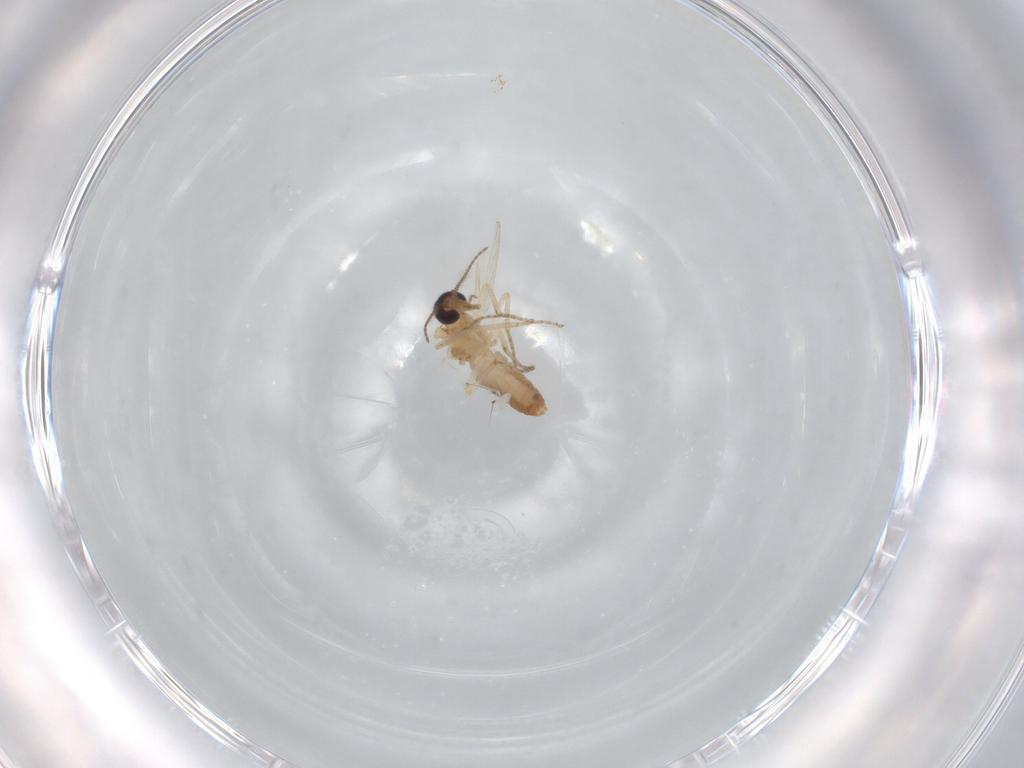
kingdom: Animalia
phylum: Arthropoda
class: Insecta
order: Diptera
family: Ceratopogonidae
